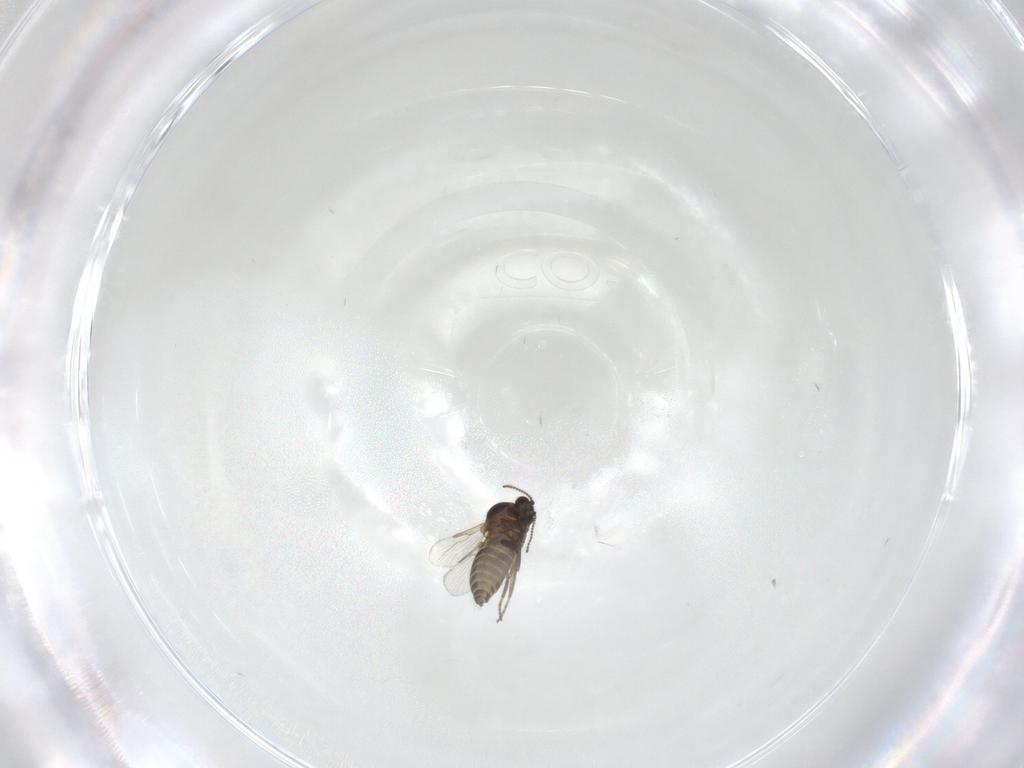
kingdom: Animalia
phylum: Arthropoda
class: Insecta
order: Diptera
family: Ceratopogonidae
